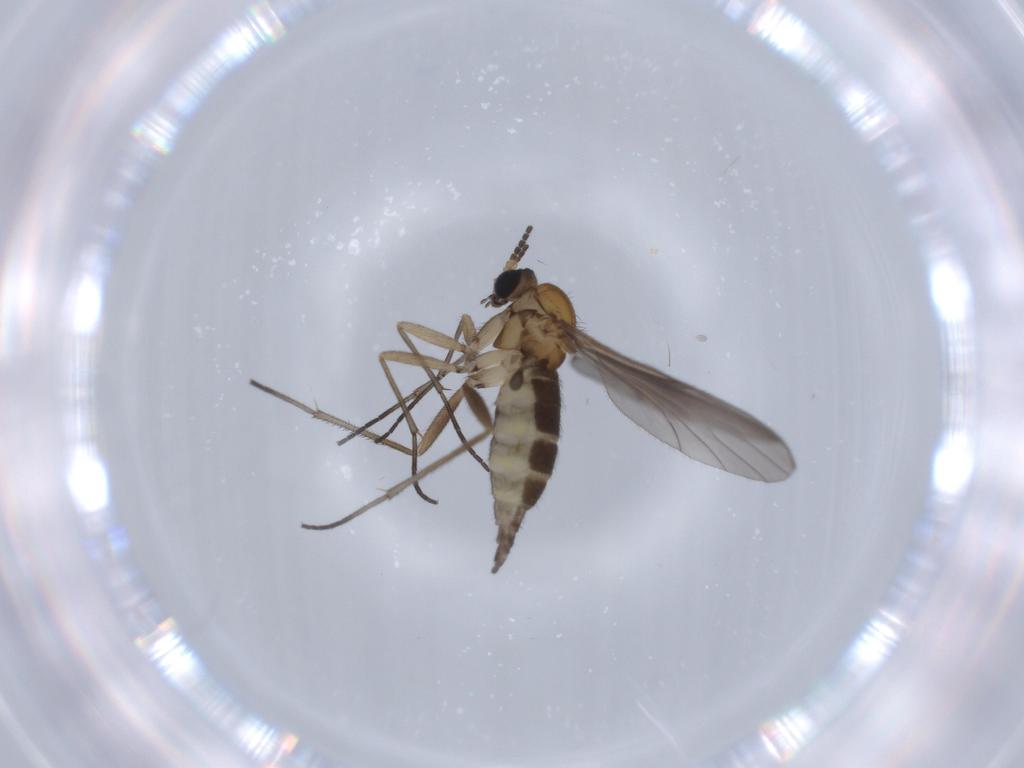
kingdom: Animalia
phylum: Arthropoda
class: Insecta
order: Diptera
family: Sciaridae
